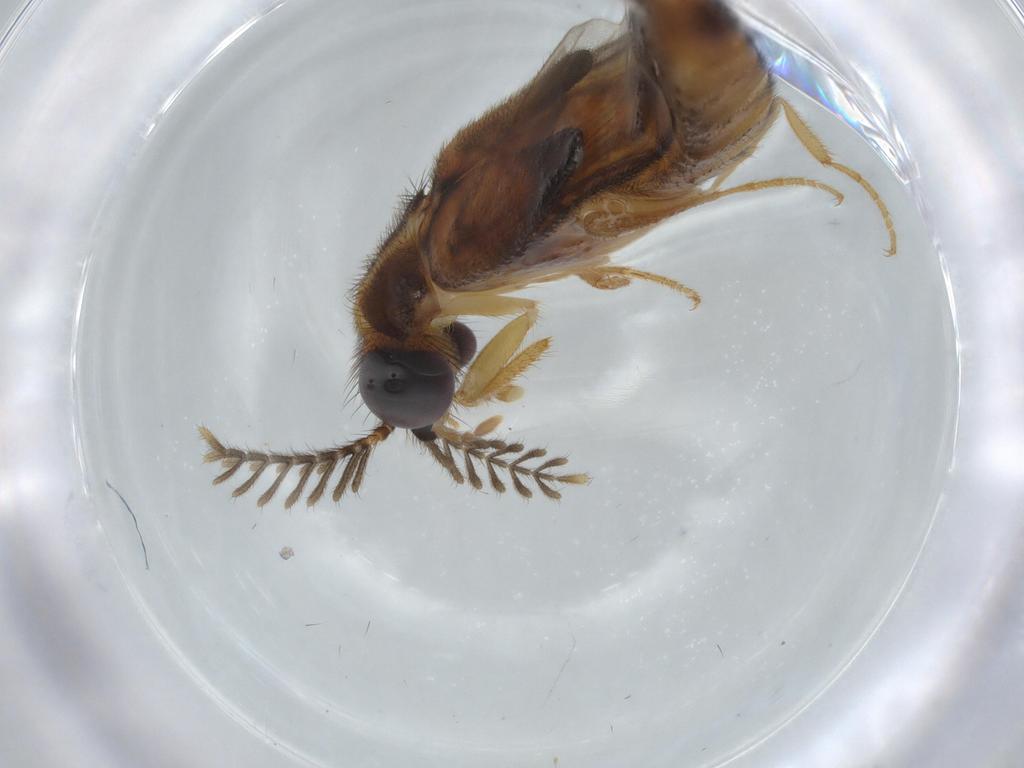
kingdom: Animalia
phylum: Arthropoda
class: Insecta
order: Coleoptera
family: Phengodidae
